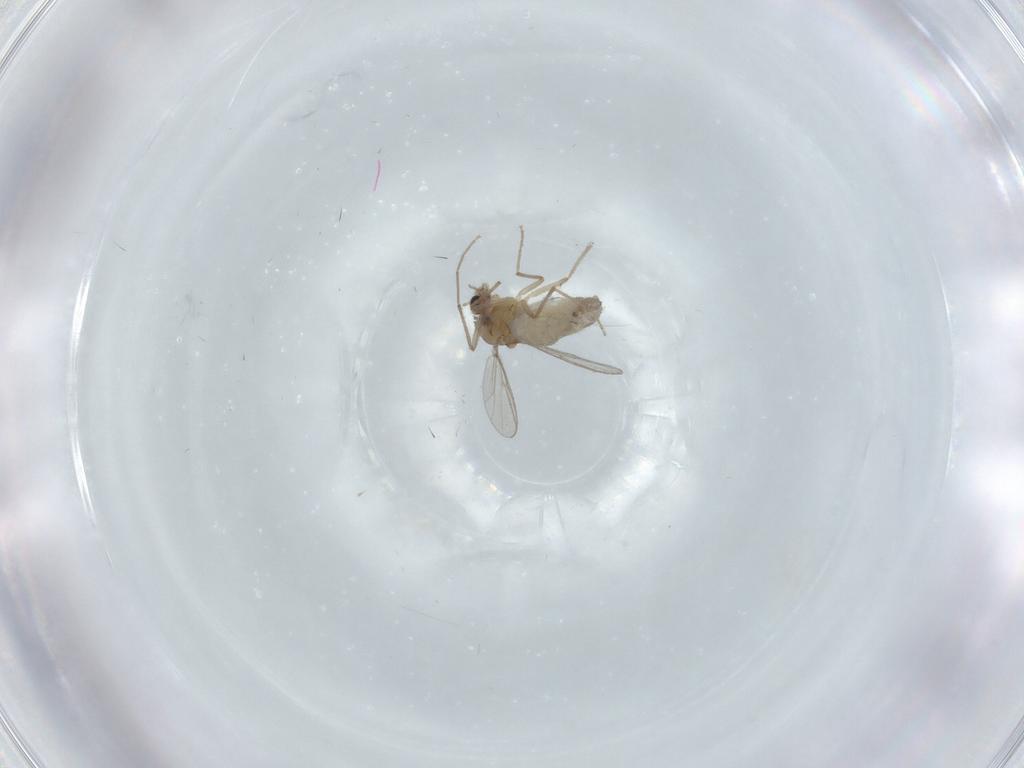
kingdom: Animalia
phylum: Arthropoda
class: Insecta
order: Diptera
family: Chironomidae
